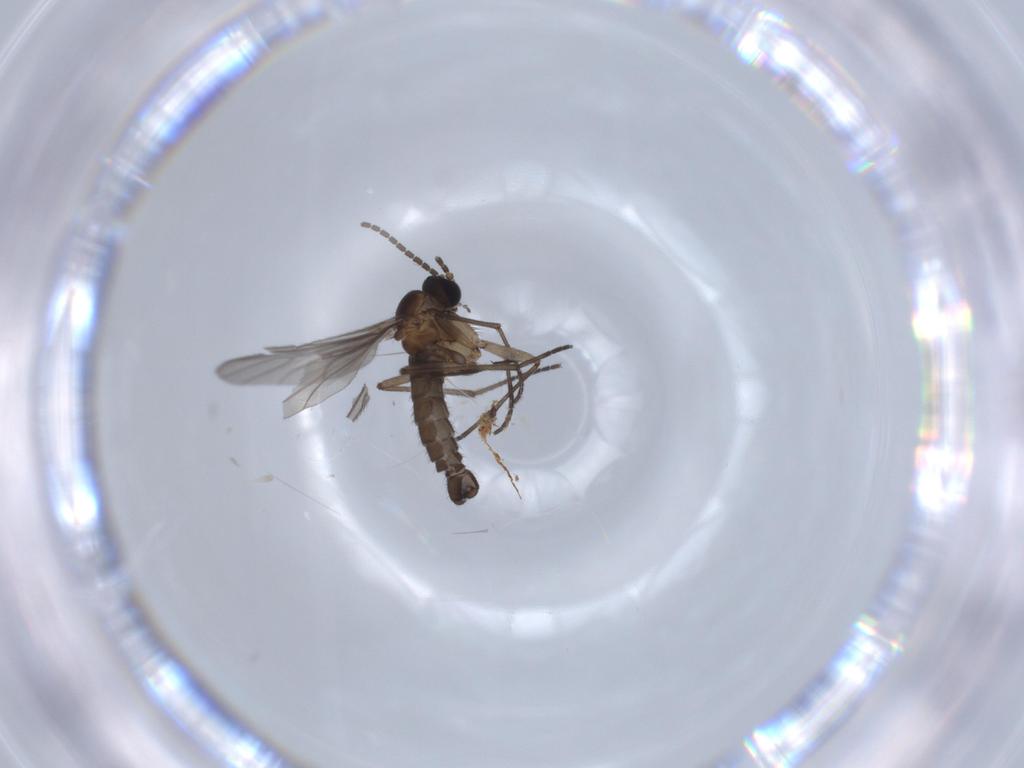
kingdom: Animalia
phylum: Arthropoda
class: Insecta
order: Diptera
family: Sciaridae
